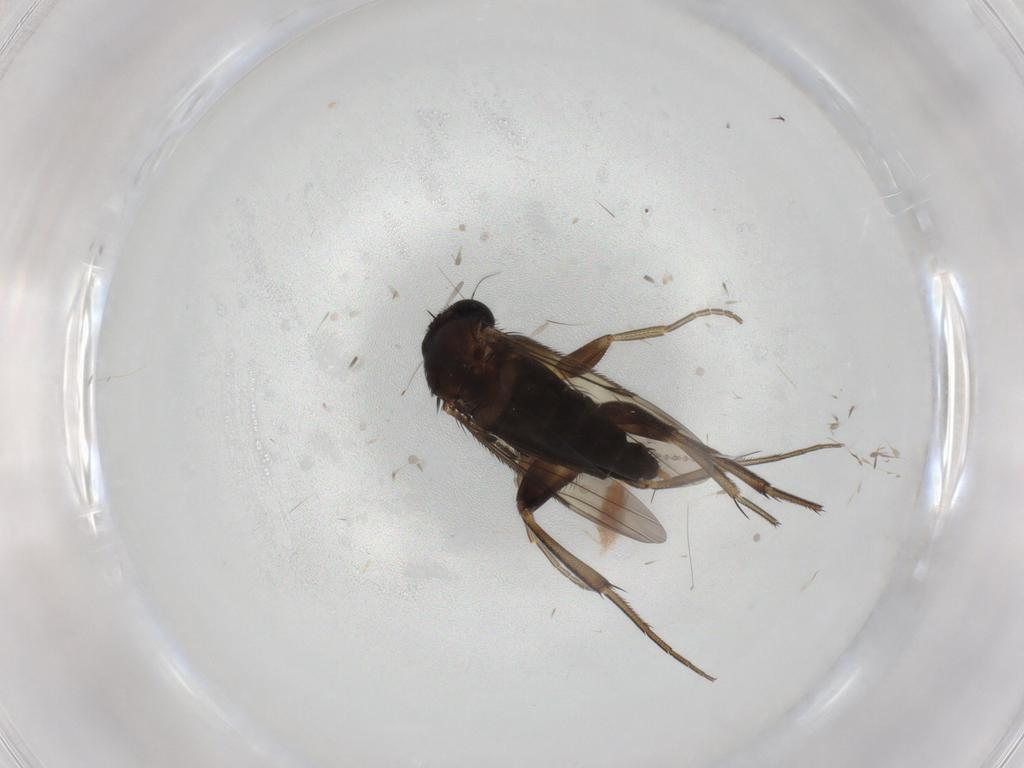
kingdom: Animalia
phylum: Arthropoda
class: Insecta
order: Diptera
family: Phoridae
